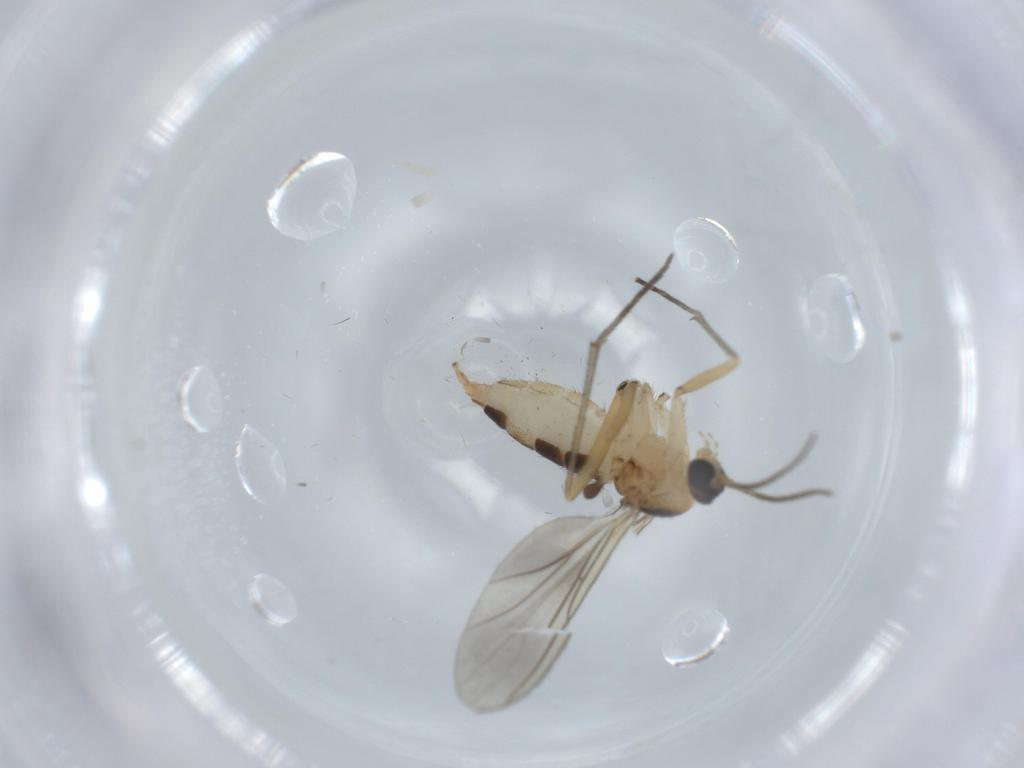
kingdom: Animalia
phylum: Arthropoda
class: Insecta
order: Diptera
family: Sciaridae
